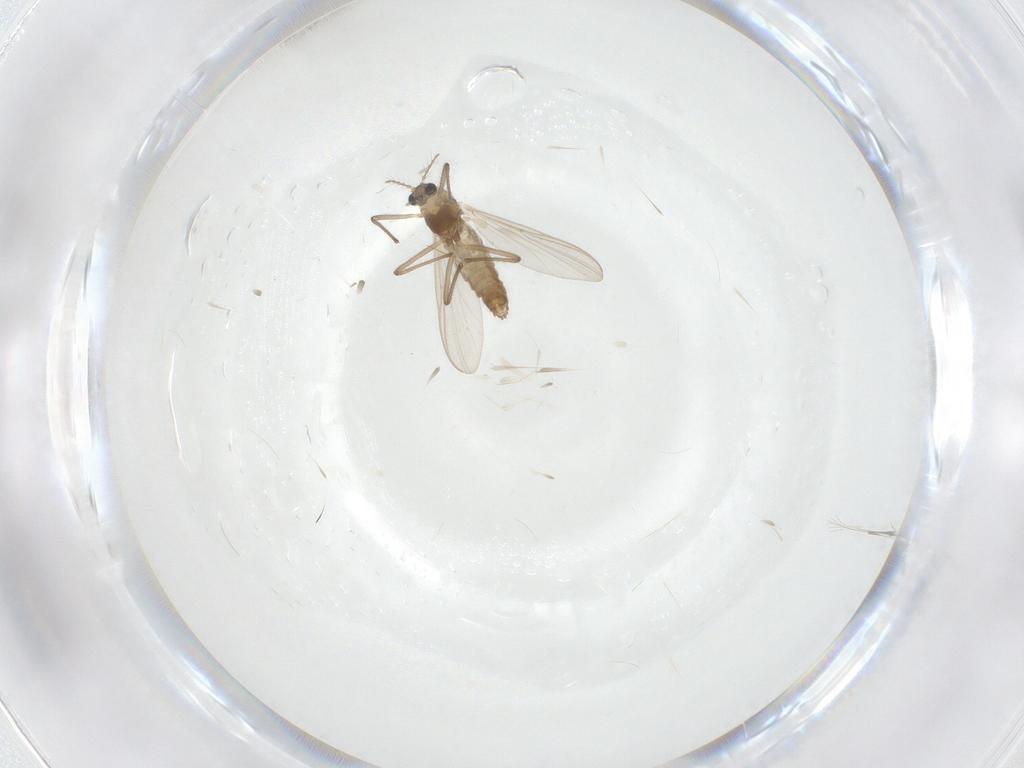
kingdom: Animalia
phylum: Arthropoda
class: Insecta
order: Diptera
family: Chironomidae
